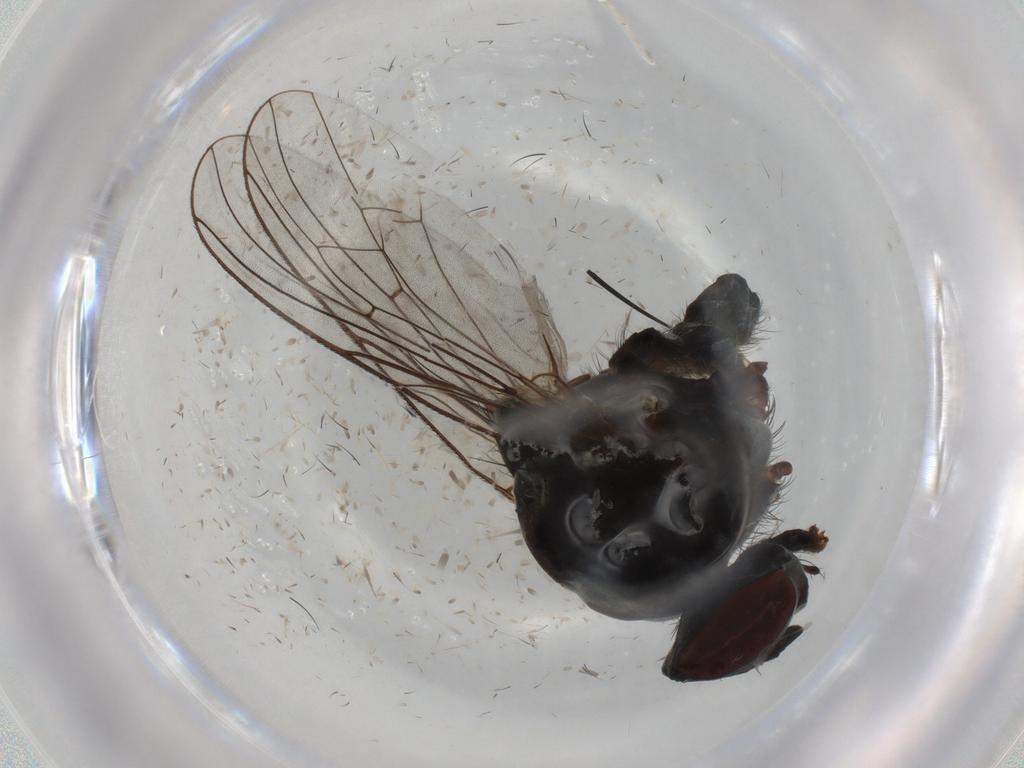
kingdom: Animalia
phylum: Arthropoda
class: Insecta
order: Diptera
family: Anthomyiidae
